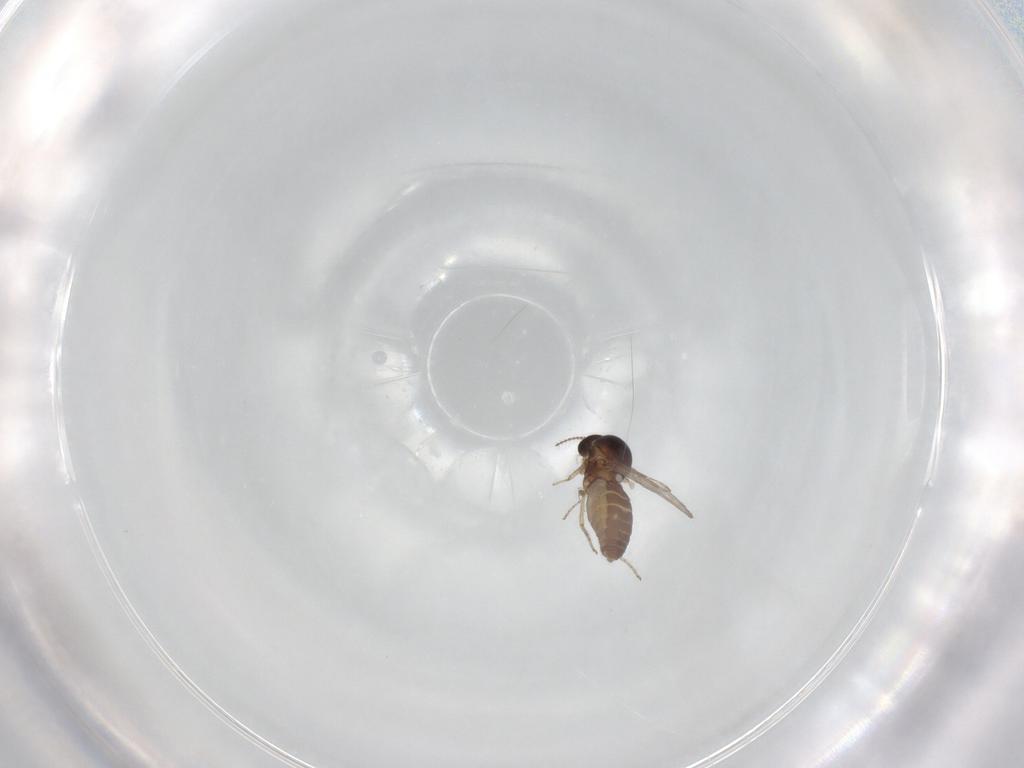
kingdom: Animalia
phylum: Arthropoda
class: Insecta
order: Diptera
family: Ceratopogonidae
